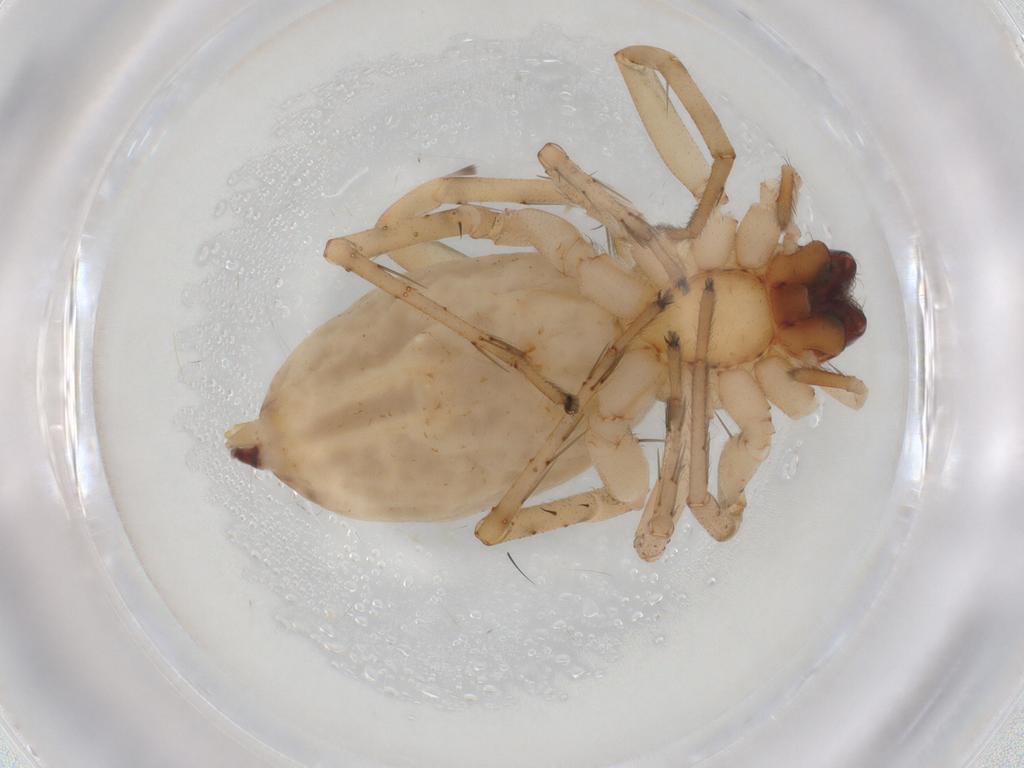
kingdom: Animalia
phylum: Arthropoda
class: Arachnida
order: Araneae
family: Anyphaenidae
